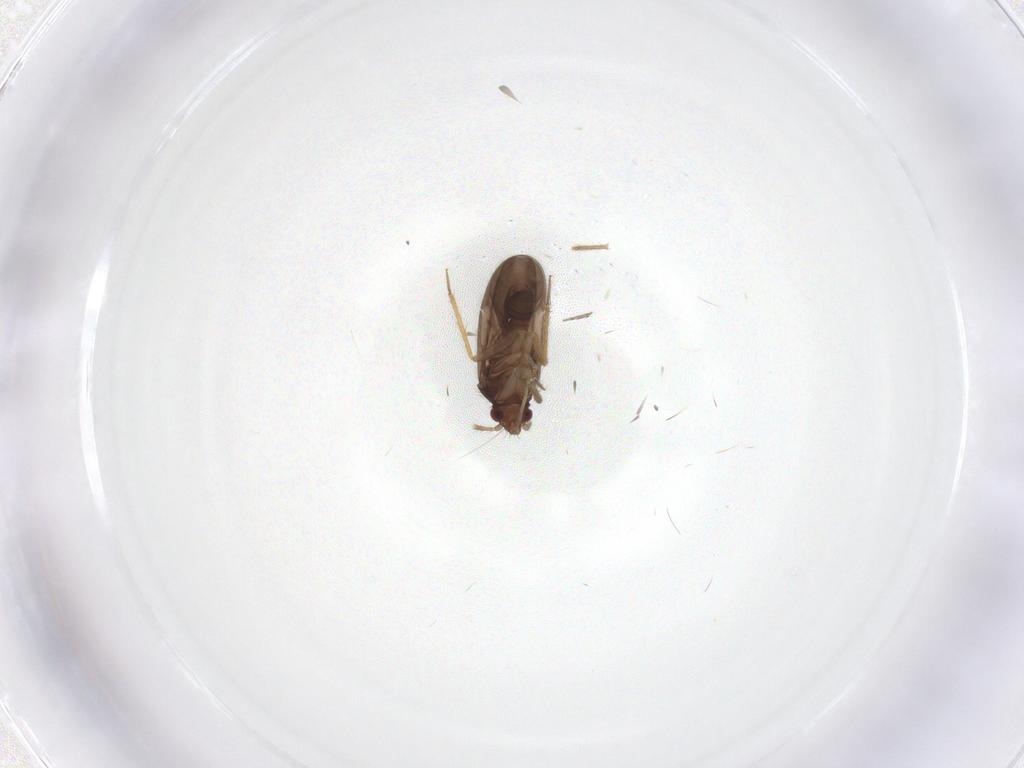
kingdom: Animalia
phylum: Arthropoda
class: Insecta
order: Hemiptera
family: Ceratocombidae
